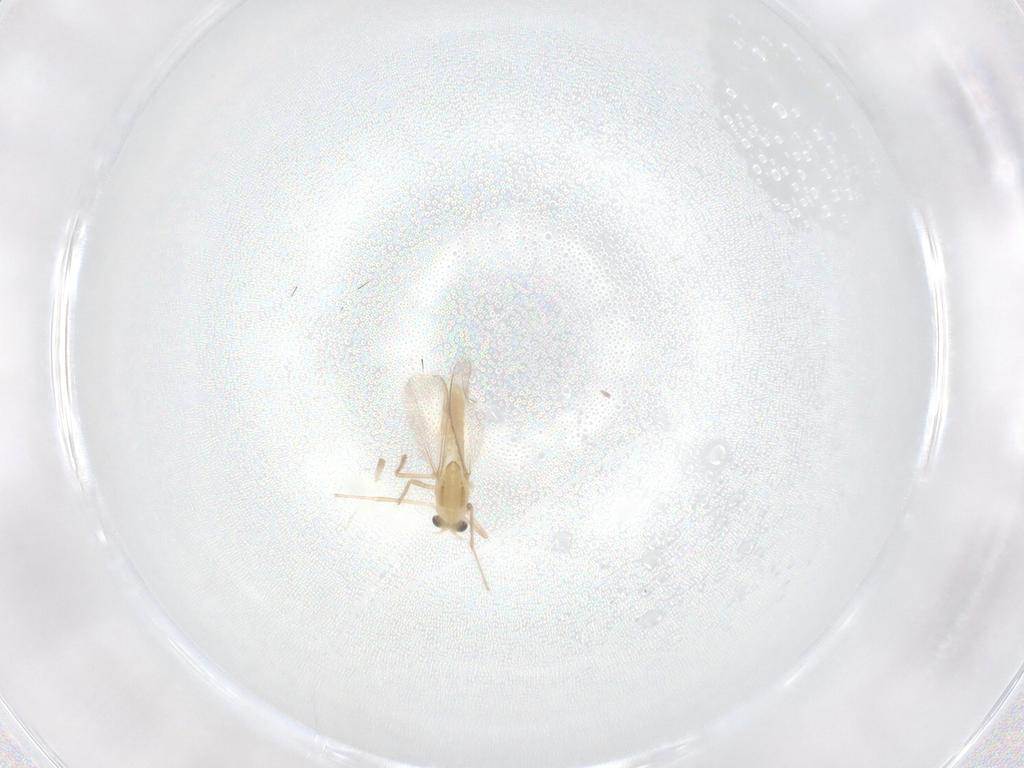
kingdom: Animalia
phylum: Arthropoda
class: Insecta
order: Diptera
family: Chironomidae
